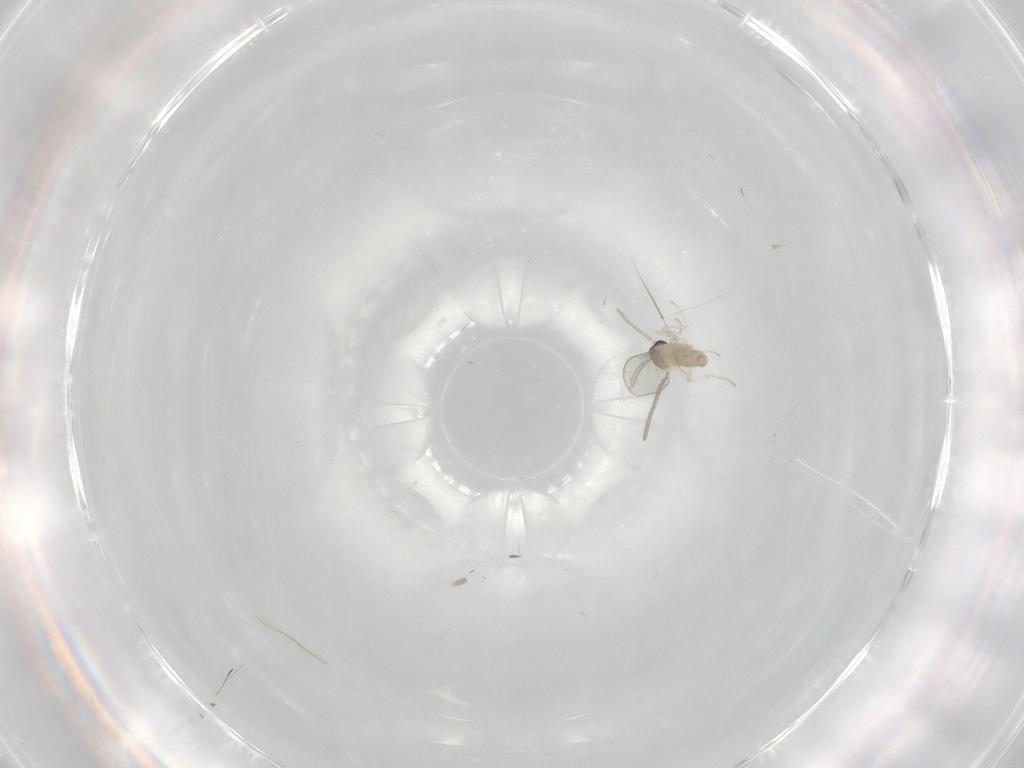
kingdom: Animalia
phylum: Arthropoda
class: Insecta
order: Diptera
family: Cecidomyiidae
